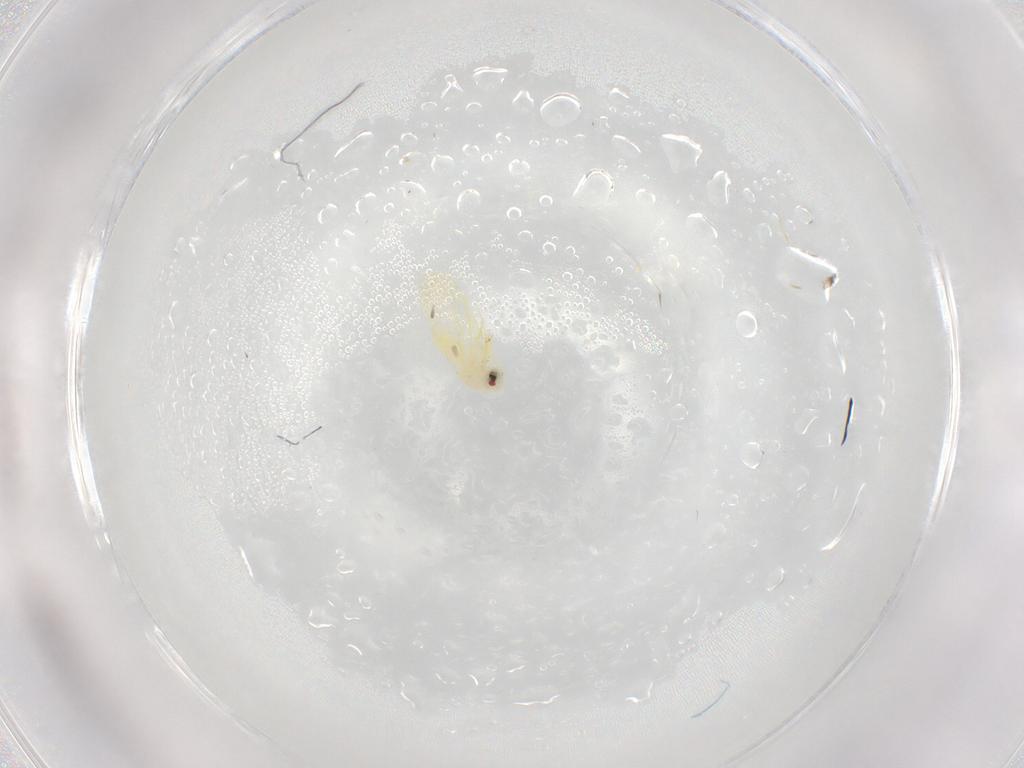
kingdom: Animalia
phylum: Arthropoda
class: Insecta
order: Hemiptera
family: Aleyrodidae
